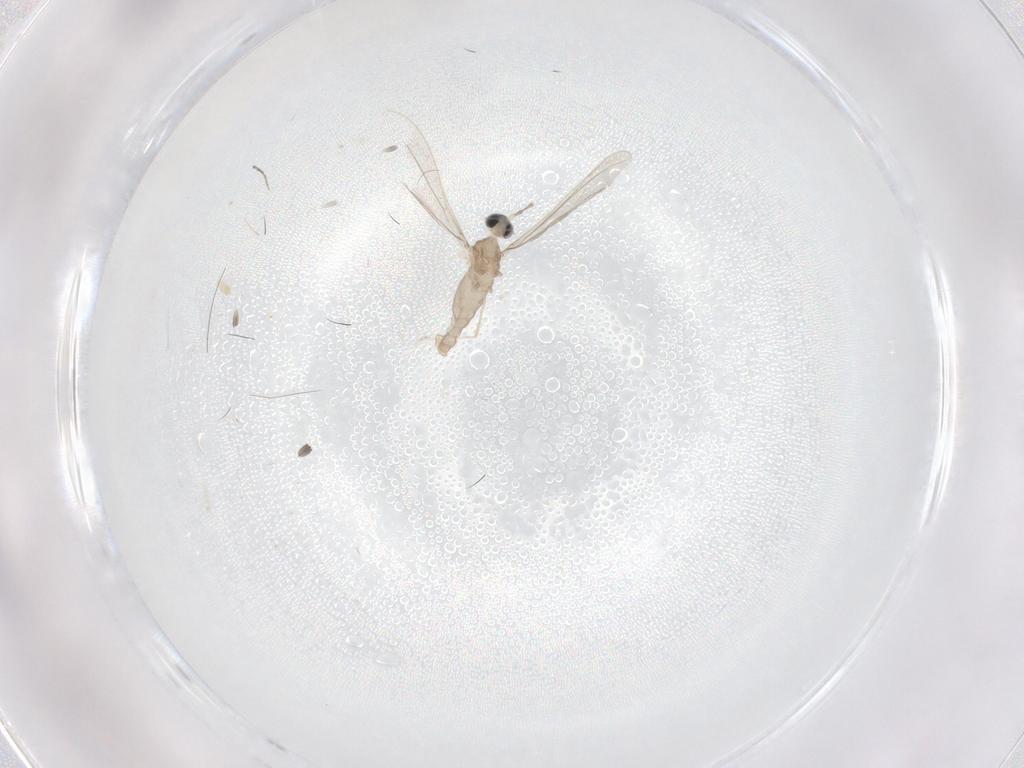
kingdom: Animalia
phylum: Arthropoda
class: Insecta
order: Diptera
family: Cecidomyiidae
